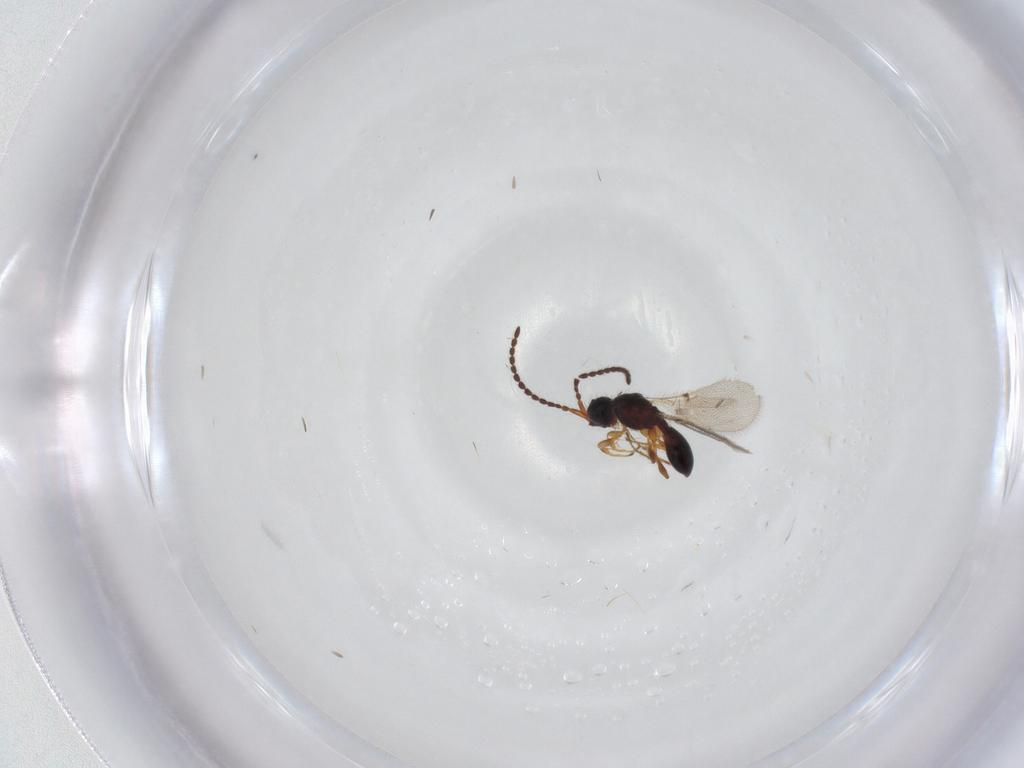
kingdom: Animalia
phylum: Arthropoda
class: Insecta
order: Hymenoptera
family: Diapriidae
